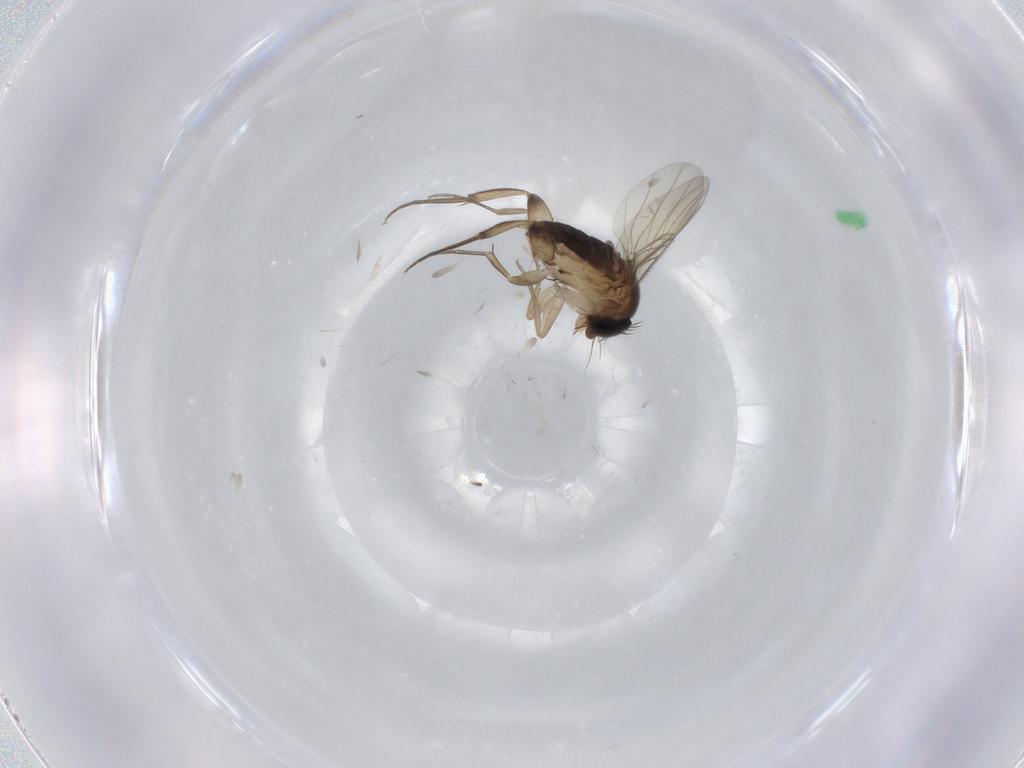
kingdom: Animalia
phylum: Arthropoda
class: Insecta
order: Diptera
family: Phoridae
